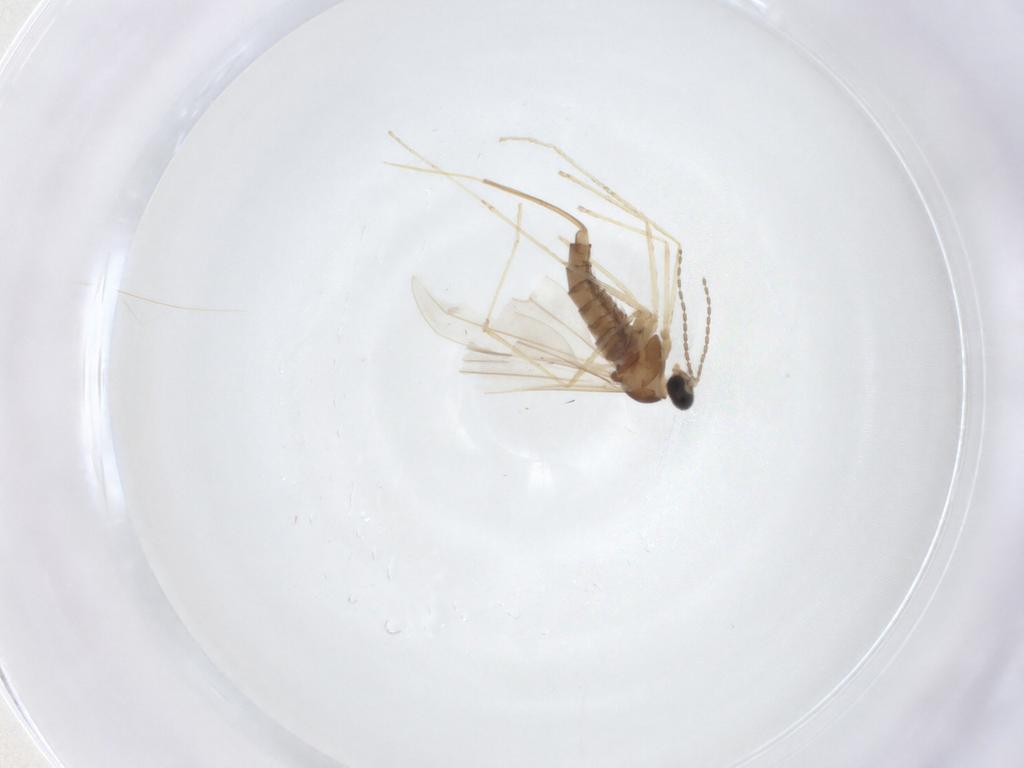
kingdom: Animalia
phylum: Arthropoda
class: Insecta
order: Diptera
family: Cecidomyiidae
